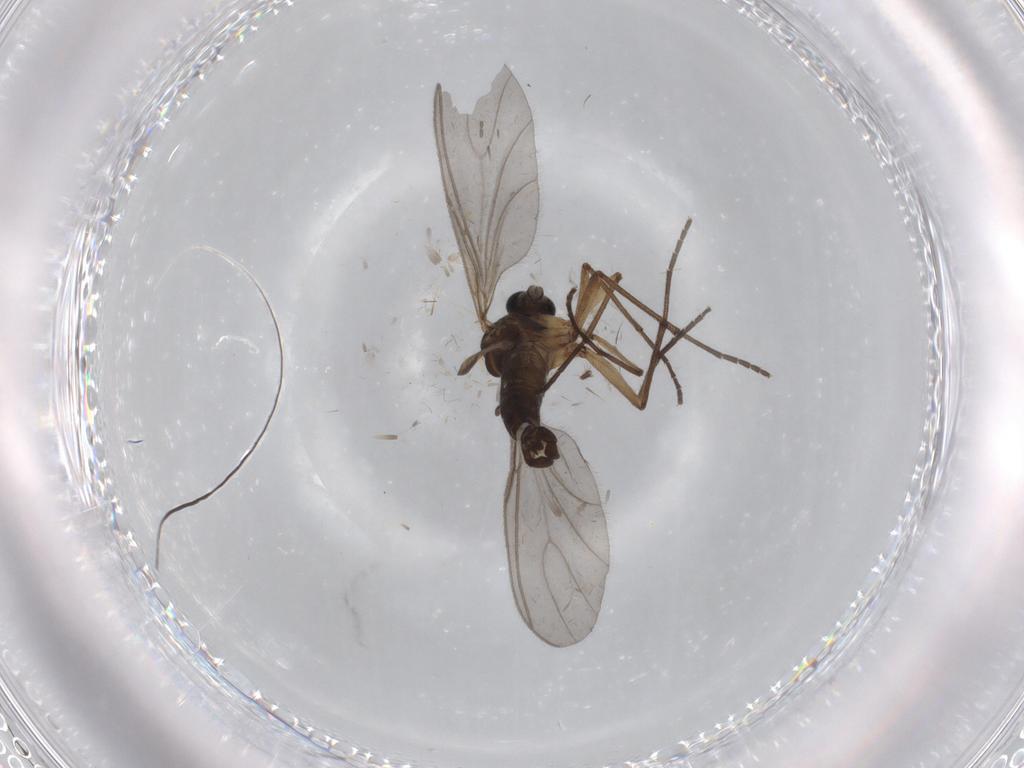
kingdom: Animalia
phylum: Arthropoda
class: Insecta
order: Diptera
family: Sciaridae
